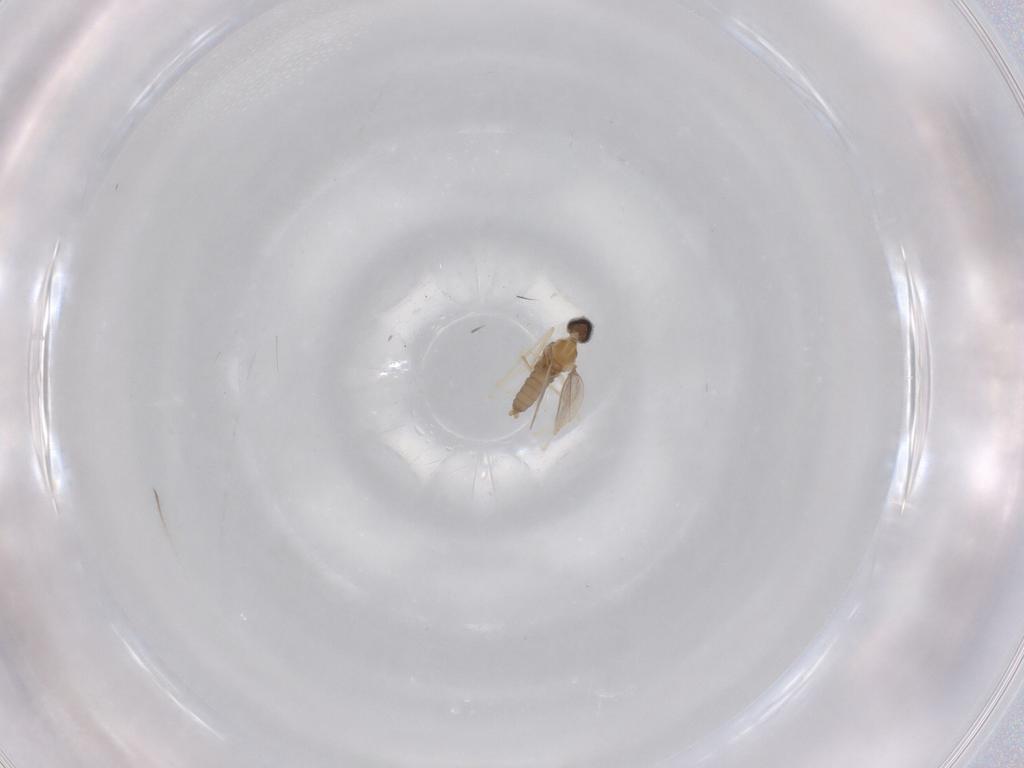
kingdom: Animalia
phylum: Arthropoda
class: Insecta
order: Diptera
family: Cecidomyiidae
